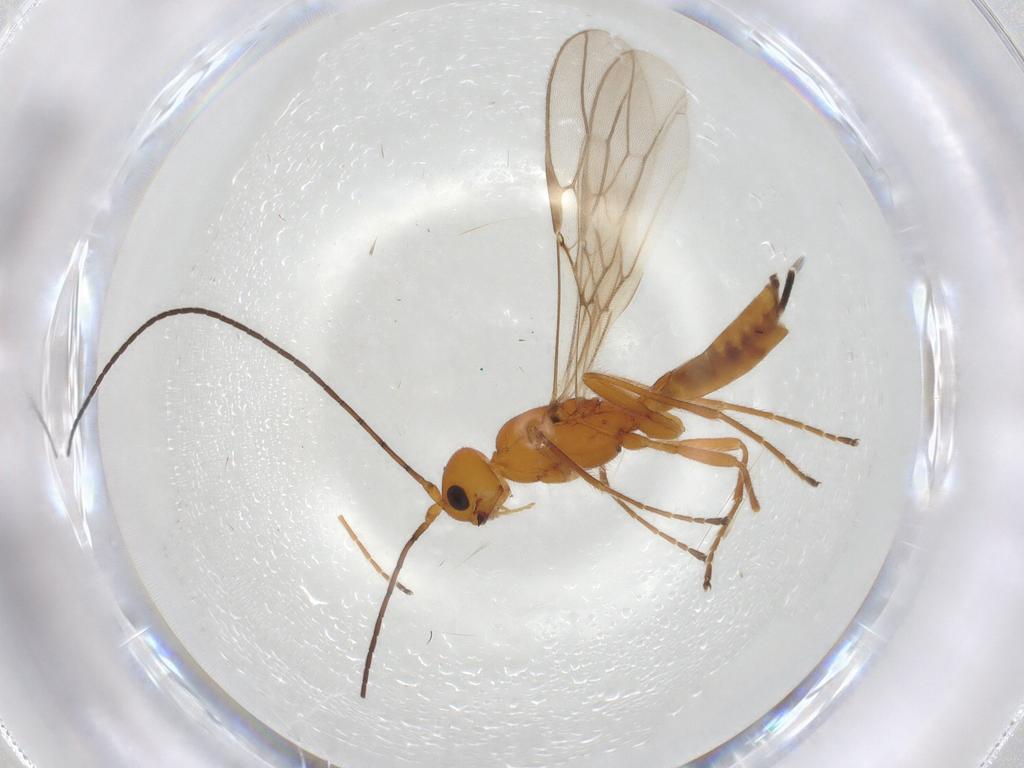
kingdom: Animalia
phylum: Arthropoda
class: Insecta
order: Hymenoptera
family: Braconidae
